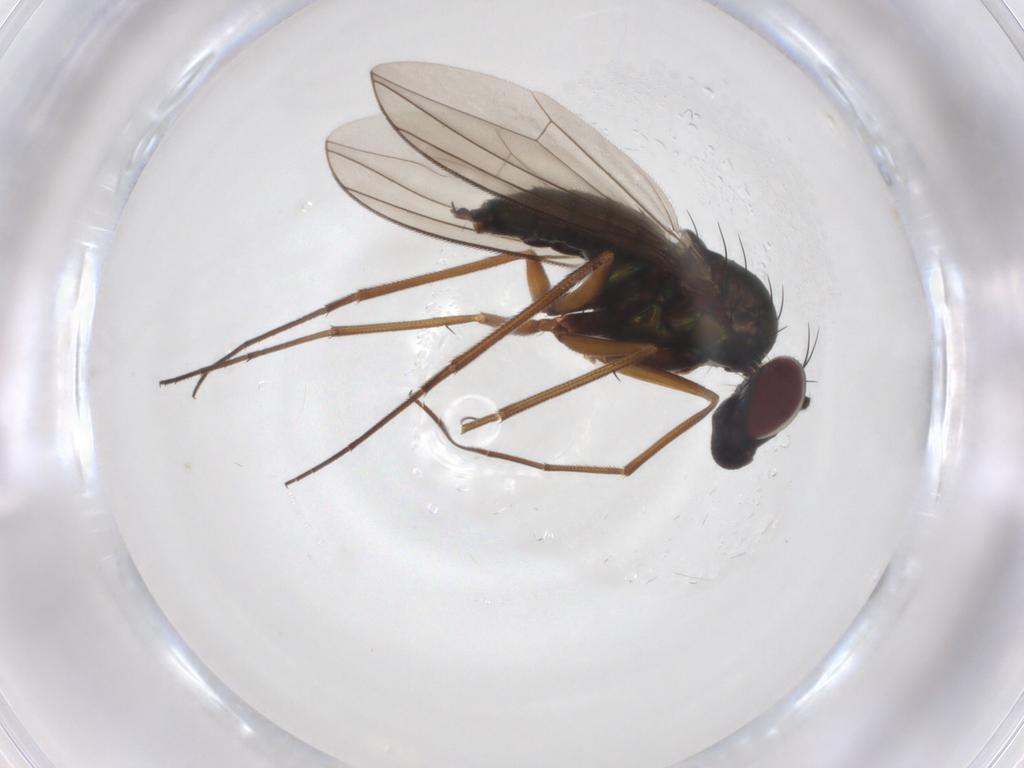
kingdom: Animalia
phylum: Arthropoda
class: Insecta
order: Diptera
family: Dolichopodidae
